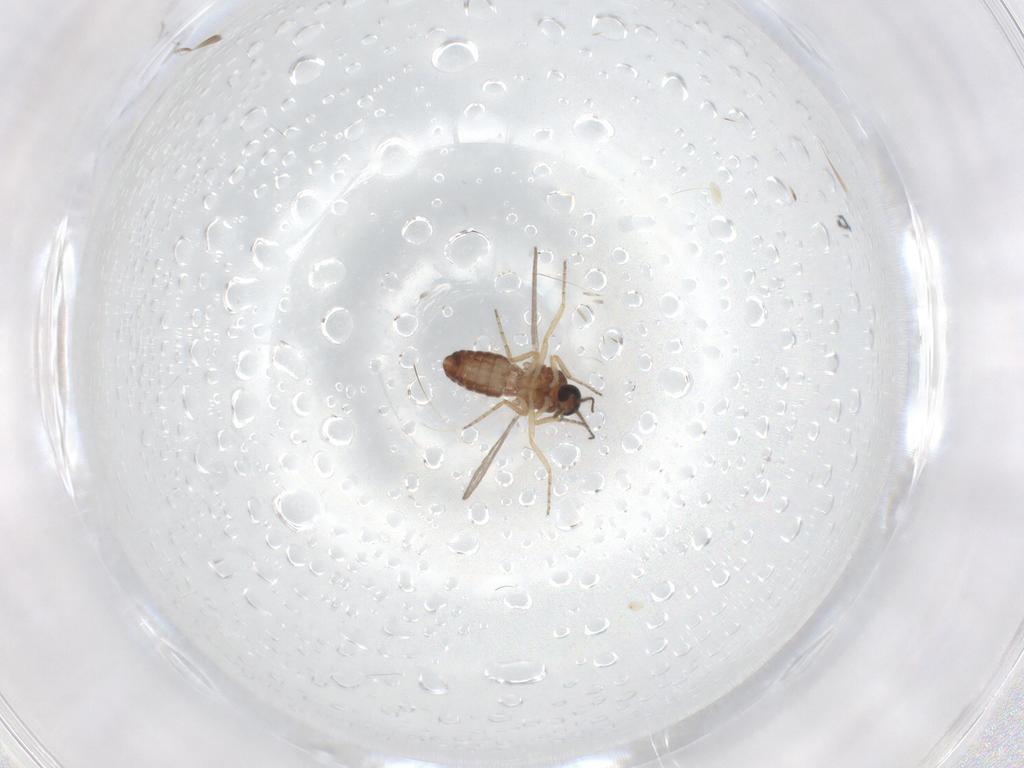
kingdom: Animalia
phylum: Arthropoda
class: Insecta
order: Diptera
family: Ceratopogonidae
